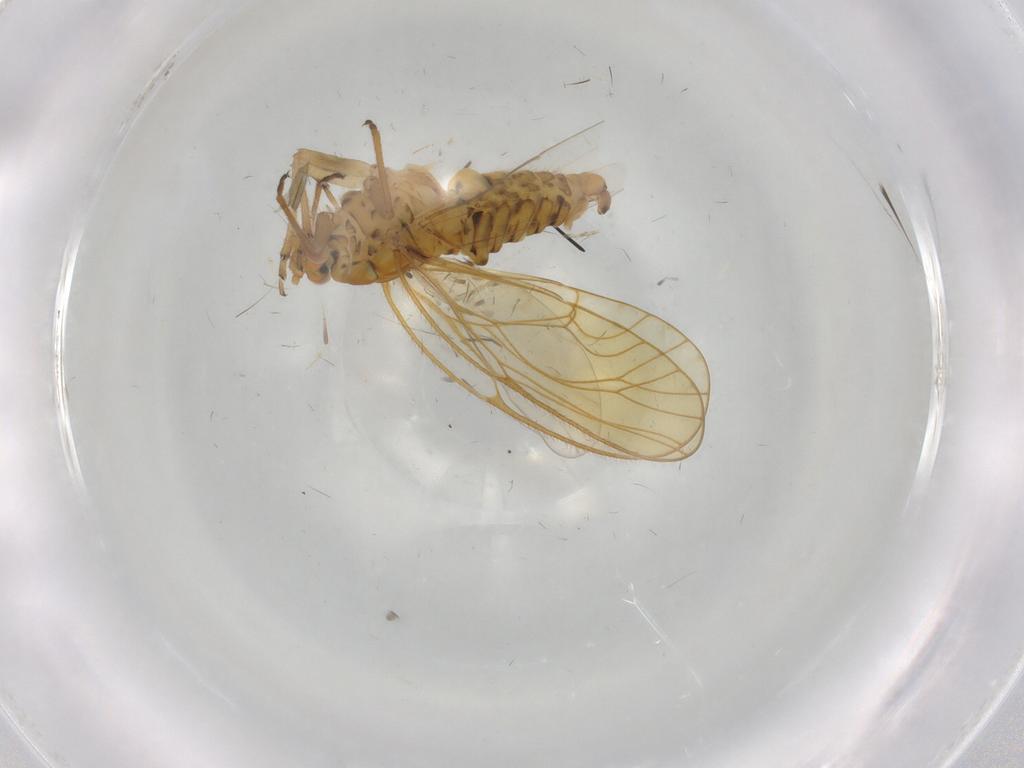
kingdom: Animalia
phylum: Arthropoda
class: Insecta
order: Hemiptera
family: Psyllidae
